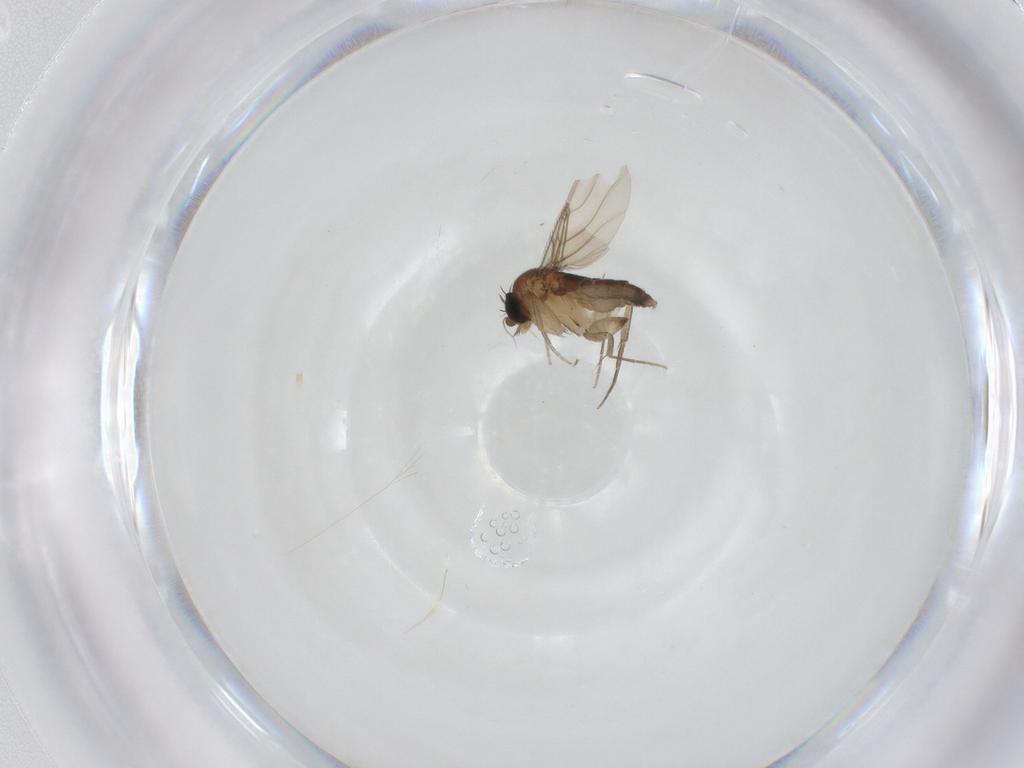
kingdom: Animalia
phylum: Arthropoda
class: Insecta
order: Diptera
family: Phoridae
